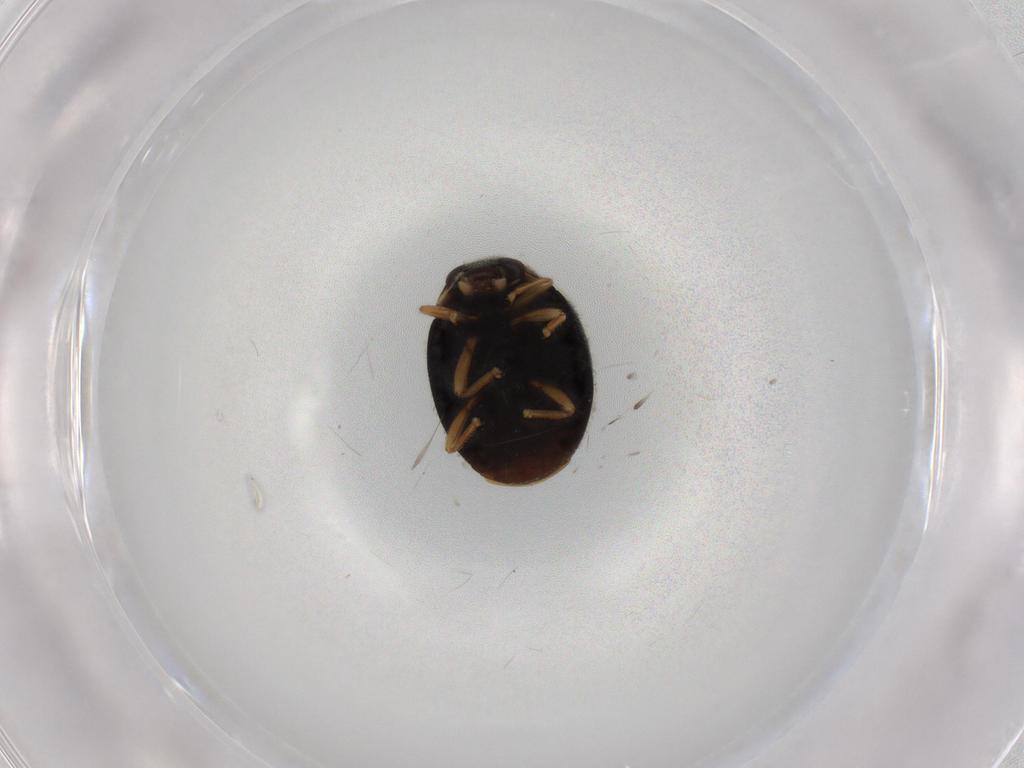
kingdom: Animalia
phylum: Arthropoda
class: Insecta
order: Coleoptera
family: Coccinellidae
